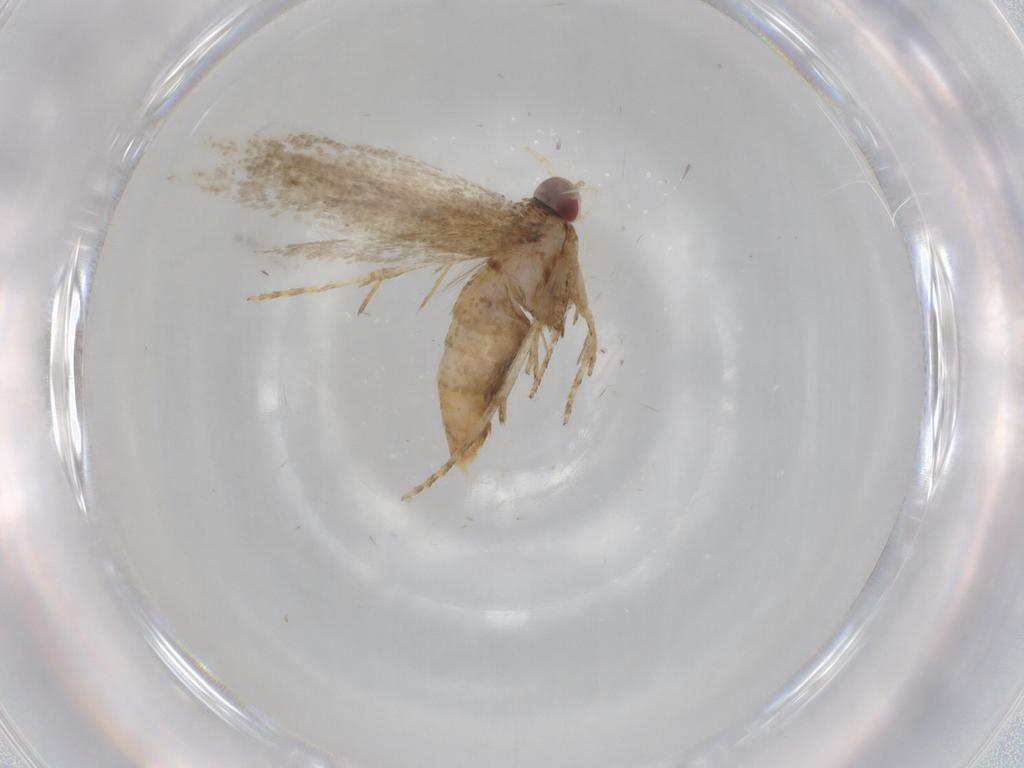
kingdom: Animalia
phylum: Arthropoda
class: Insecta
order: Lepidoptera
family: Cosmopterigidae
